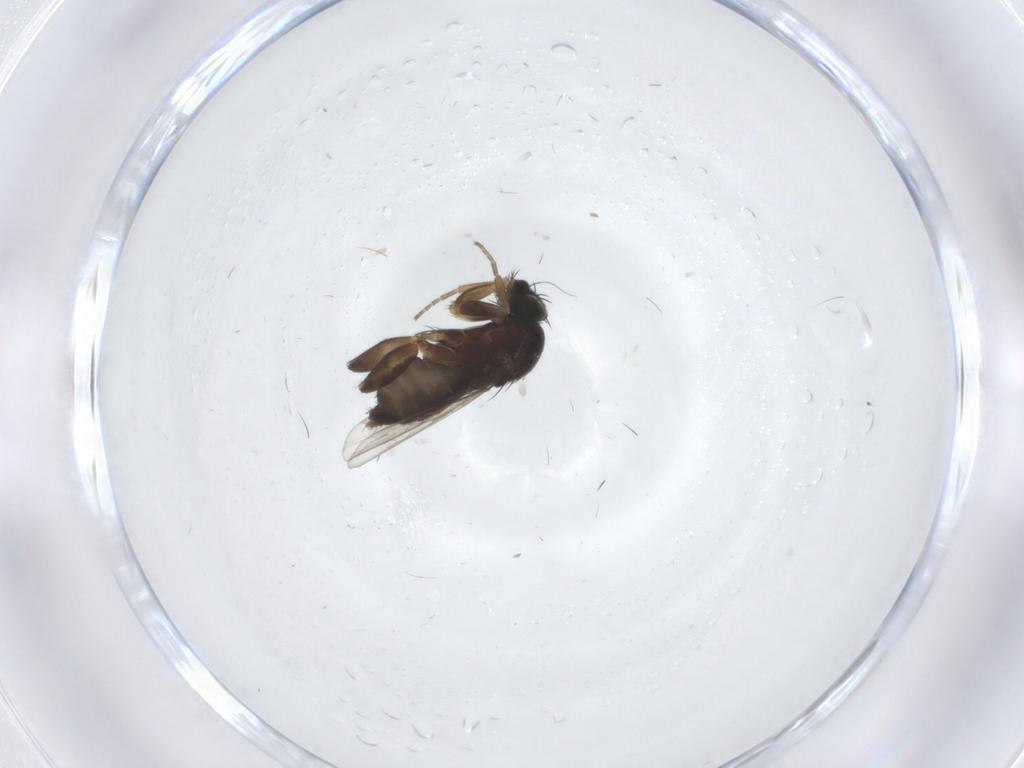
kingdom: Animalia
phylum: Arthropoda
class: Insecta
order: Diptera
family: Phoridae
